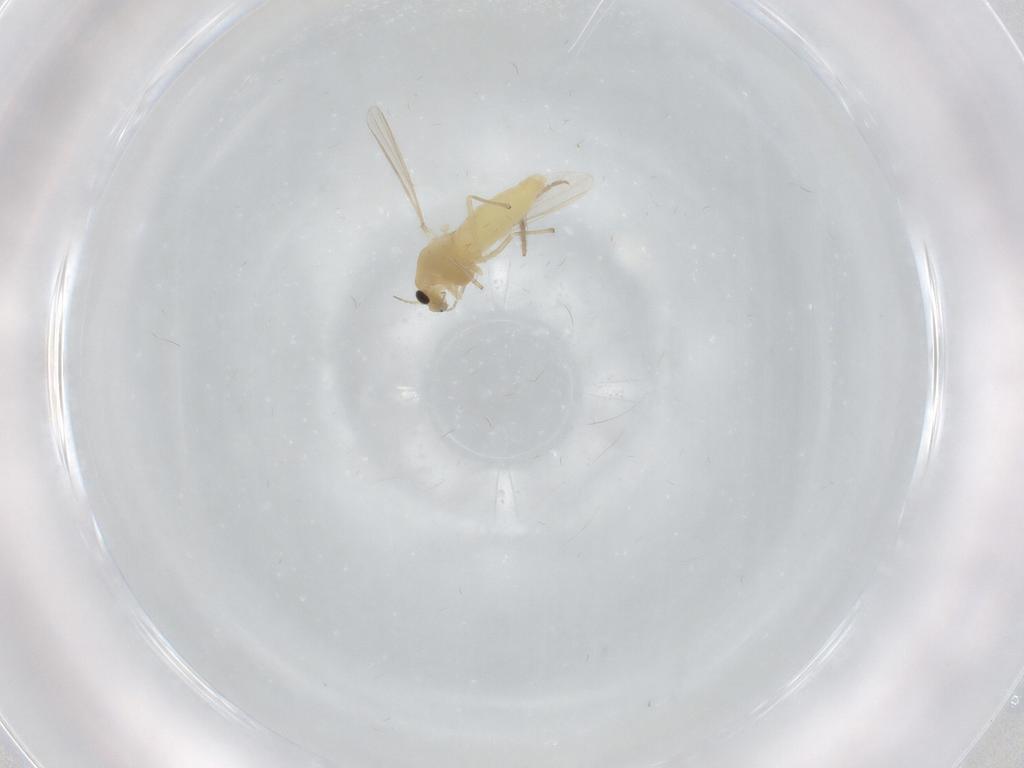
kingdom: Animalia
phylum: Arthropoda
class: Insecta
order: Diptera
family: Chironomidae
